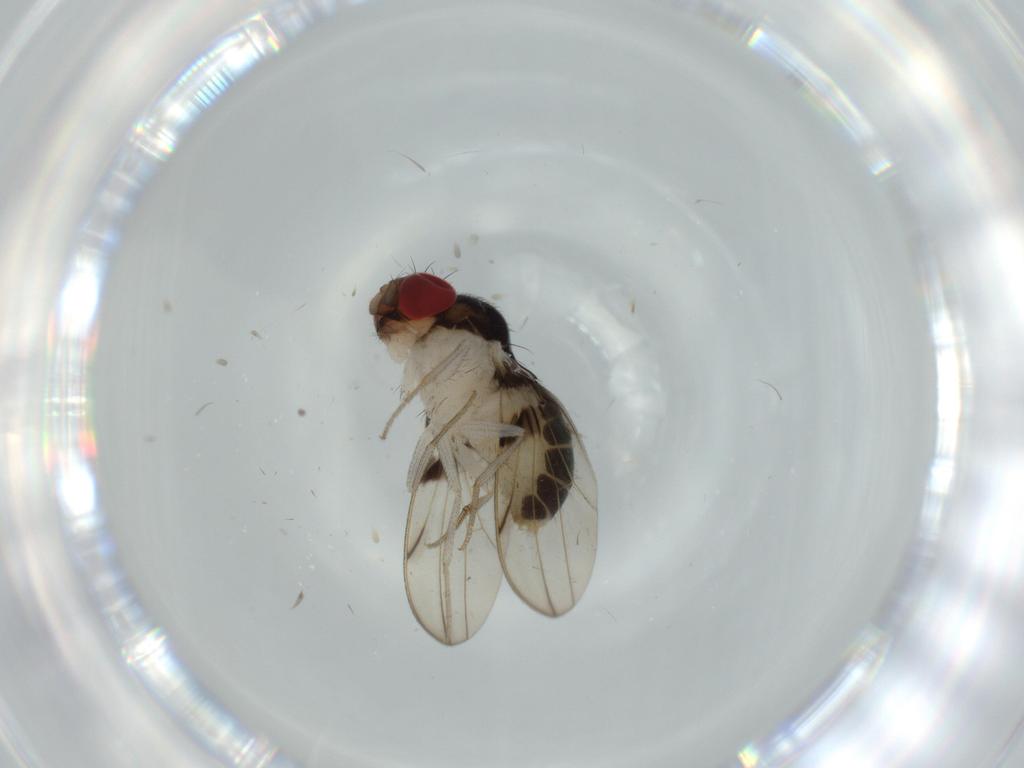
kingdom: Animalia
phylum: Arthropoda
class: Insecta
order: Diptera
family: Drosophilidae
